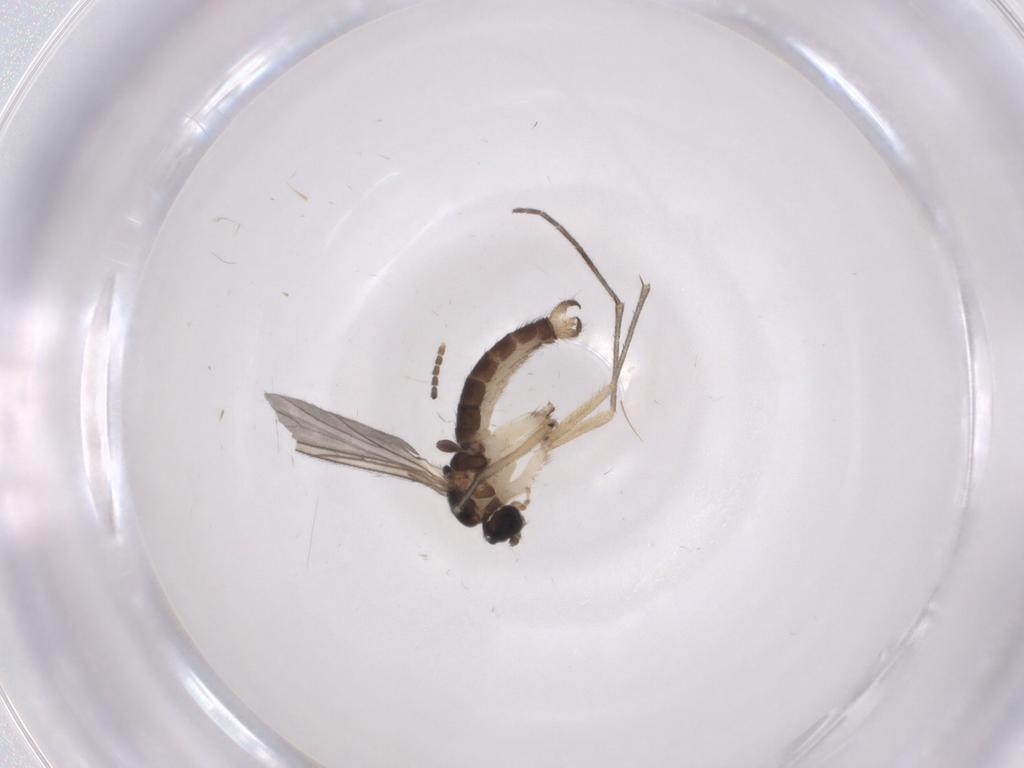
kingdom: Animalia
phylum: Arthropoda
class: Insecta
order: Diptera
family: Sciaridae
